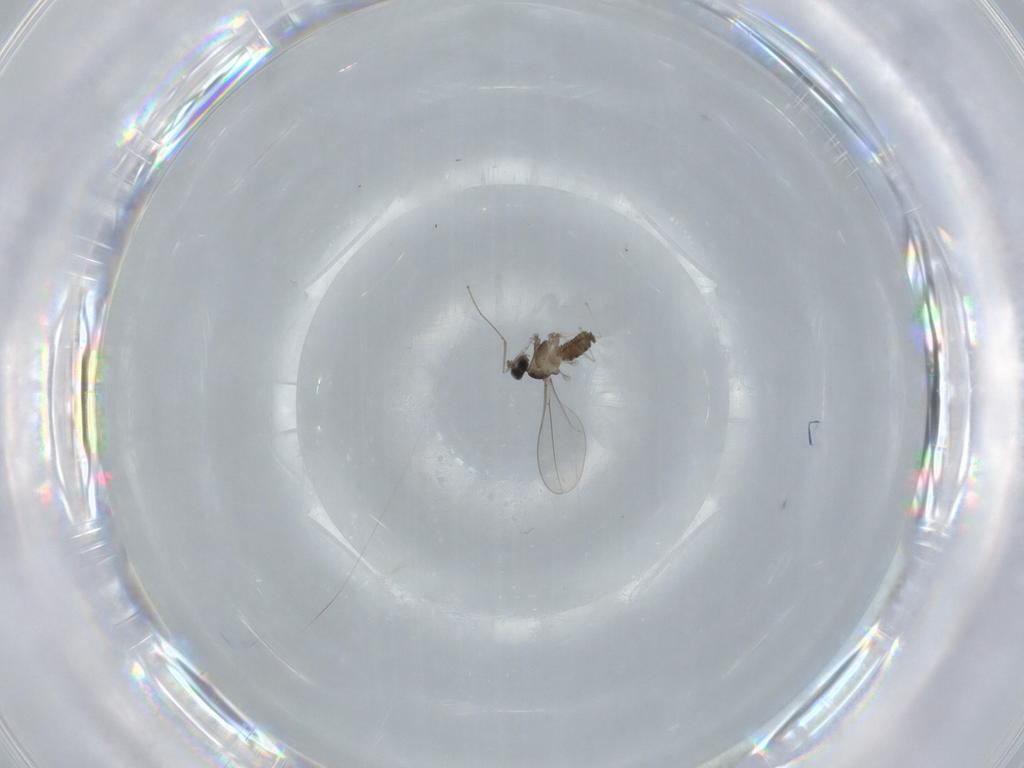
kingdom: Animalia
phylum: Arthropoda
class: Insecta
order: Diptera
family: Cecidomyiidae
